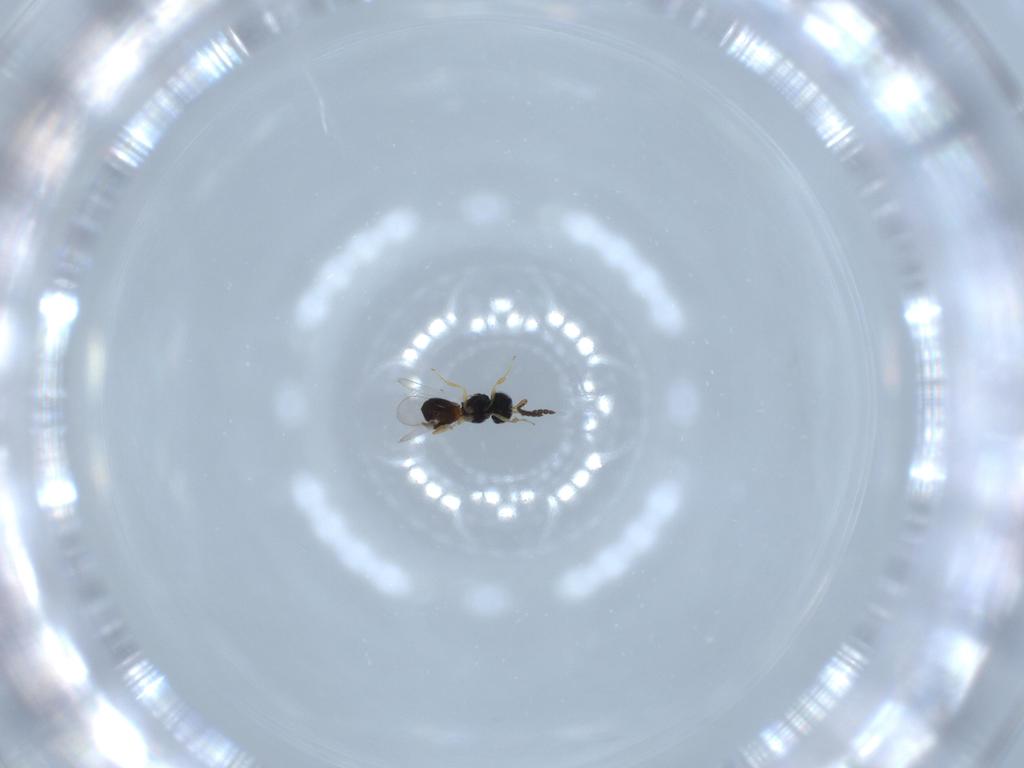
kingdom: Animalia
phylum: Arthropoda
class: Insecta
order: Hymenoptera
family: Scelionidae
